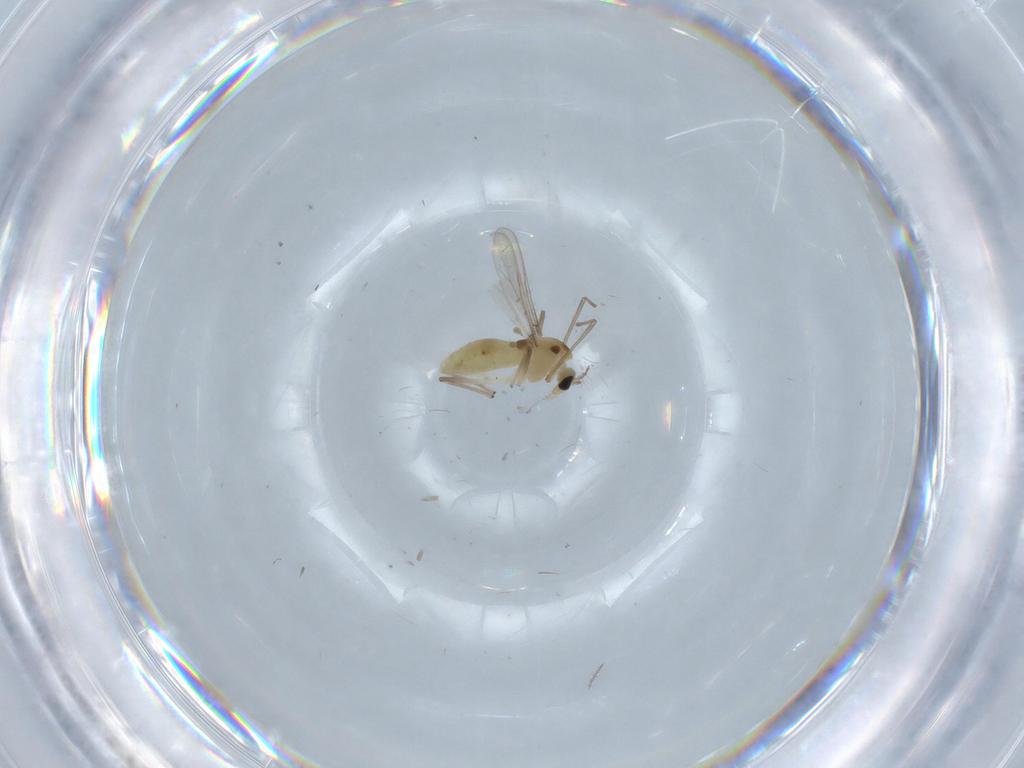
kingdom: Animalia
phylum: Arthropoda
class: Insecta
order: Diptera
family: Chironomidae
